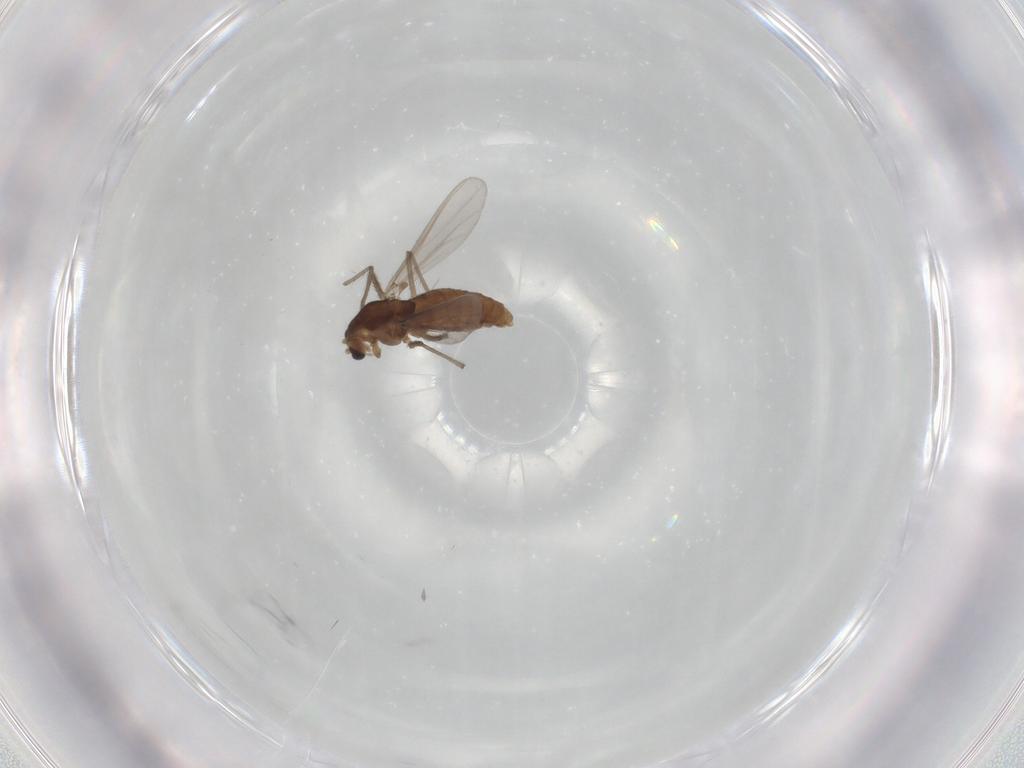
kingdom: Animalia
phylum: Arthropoda
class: Insecta
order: Diptera
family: Chironomidae
